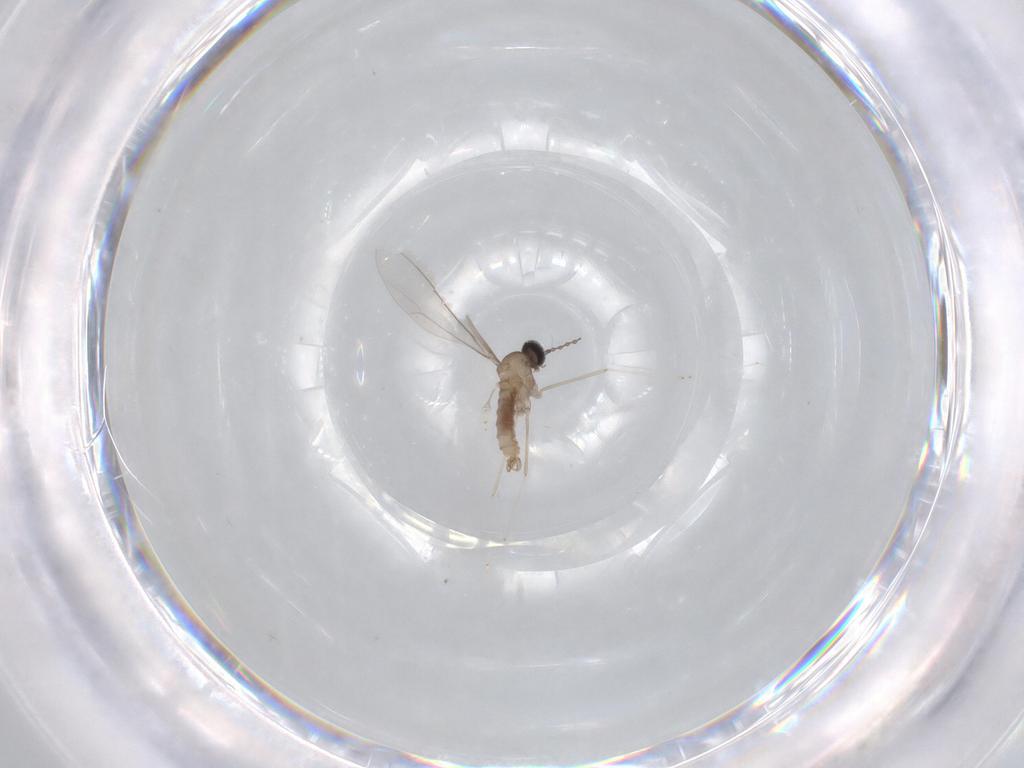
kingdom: Animalia
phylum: Arthropoda
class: Insecta
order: Diptera
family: Cecidomyiidae
